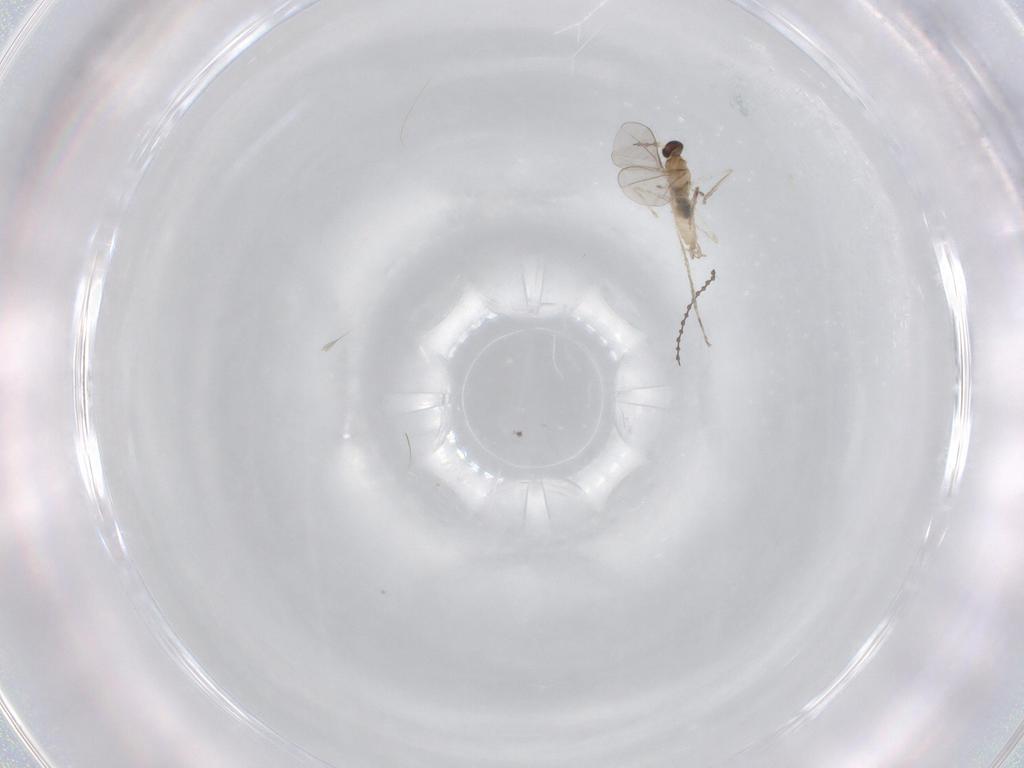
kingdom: Animalia
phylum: Arthropoda
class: Insecta
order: Diptera
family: Cecidomyiidae
